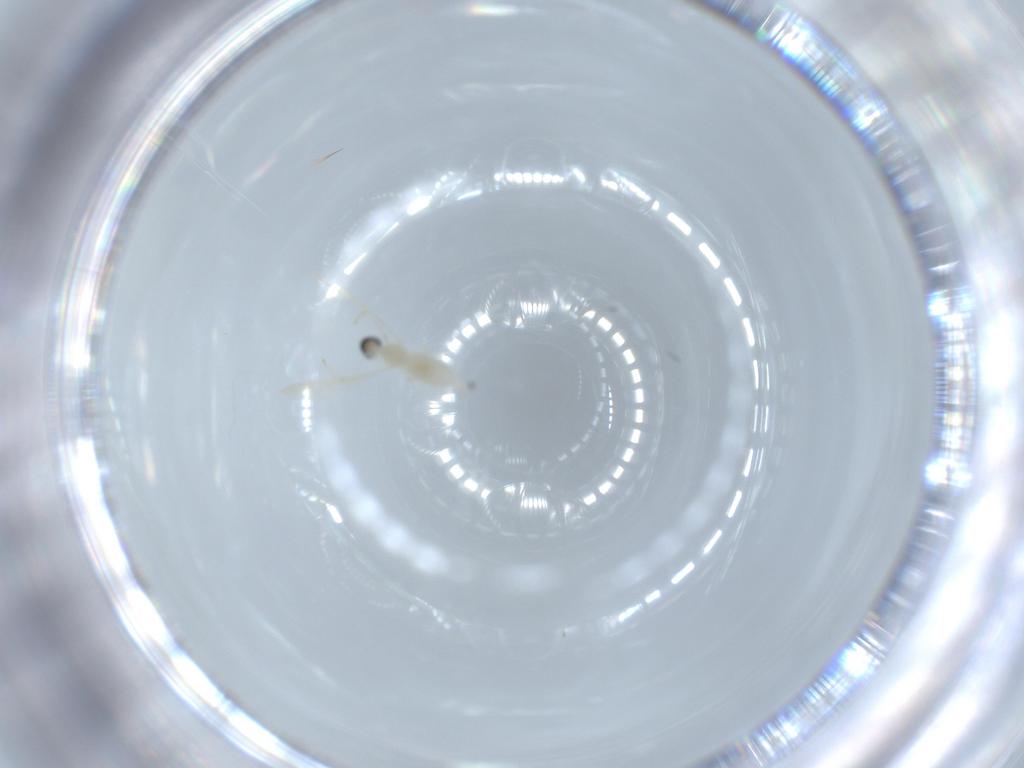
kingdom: Animalia
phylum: Arthropoda
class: Insecta
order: Diptera
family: Cecidomyiidae
